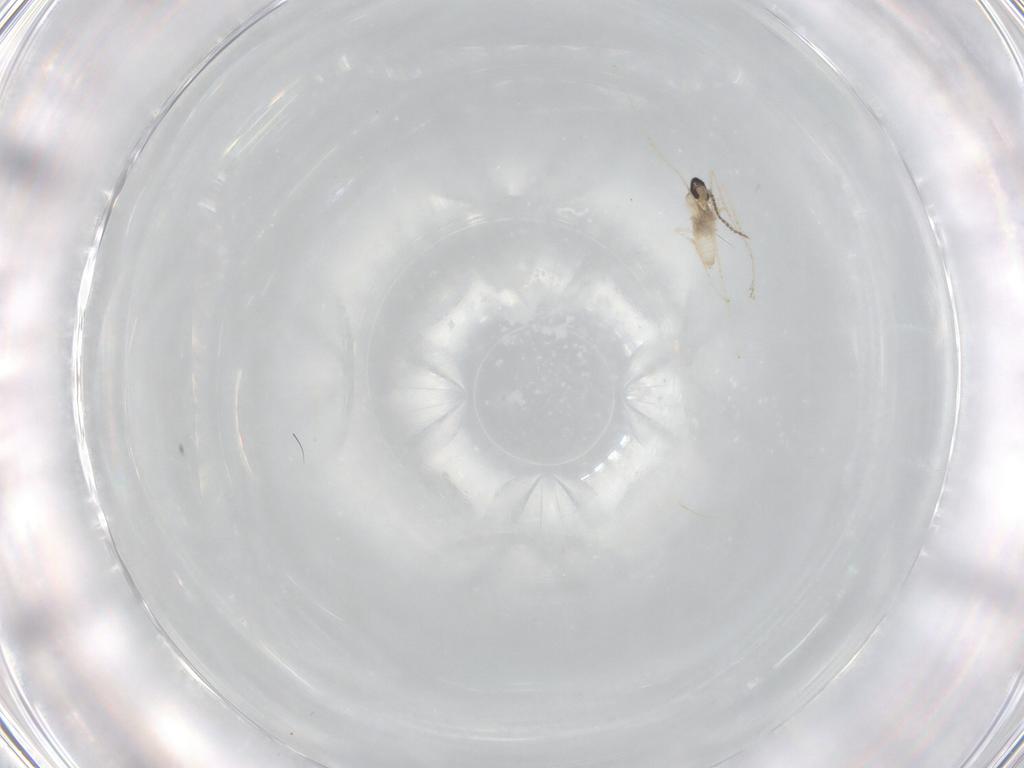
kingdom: Animalia
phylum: Arthropoda
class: Insecta
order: Diptera
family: Cecidomyiidae
